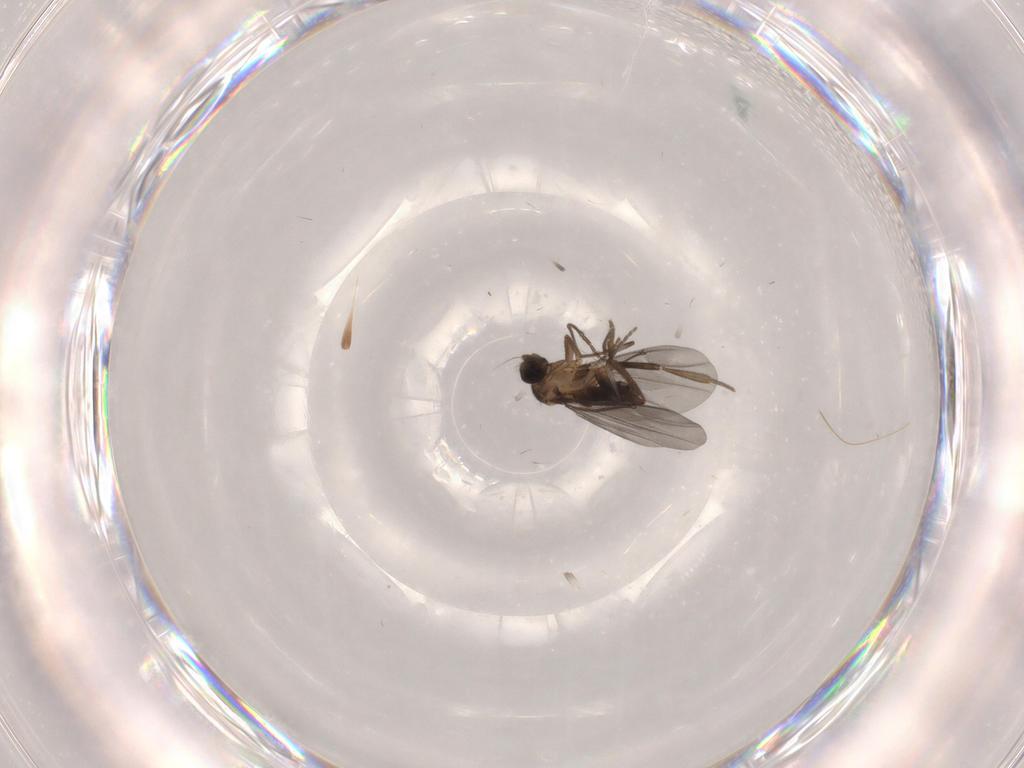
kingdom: Animalia
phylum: Arthropoda
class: Insecta
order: Diptera
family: Phoridae
